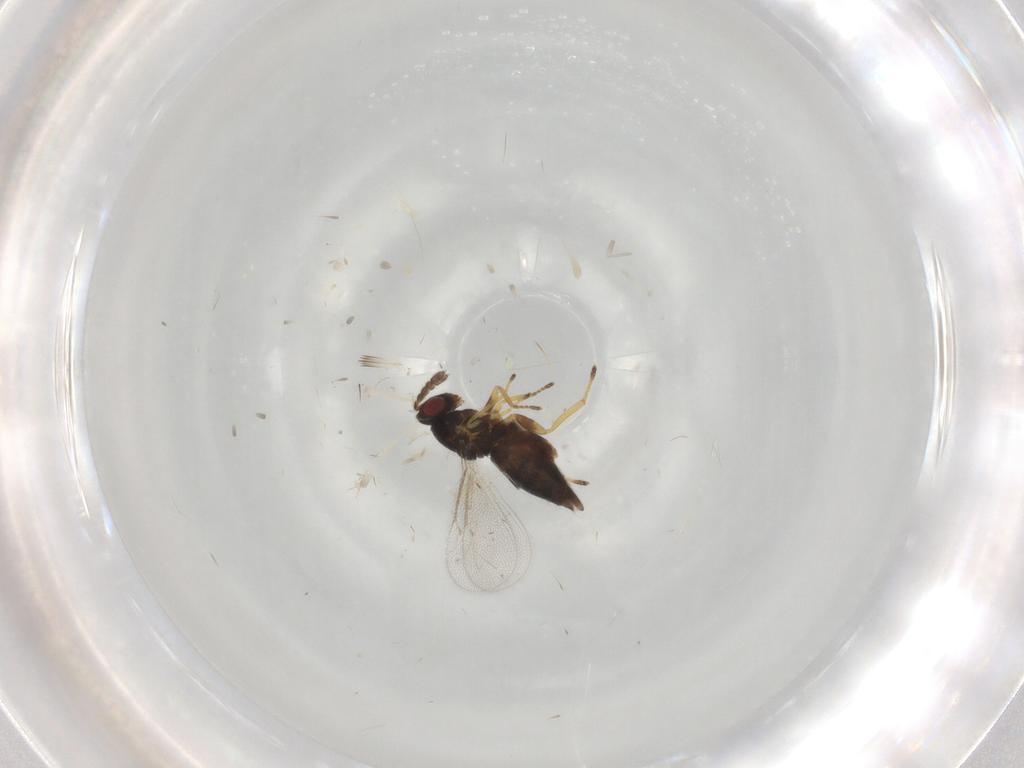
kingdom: Animalia
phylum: Arthropoda
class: Insecta
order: Hymenoptera
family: Eulophidae
